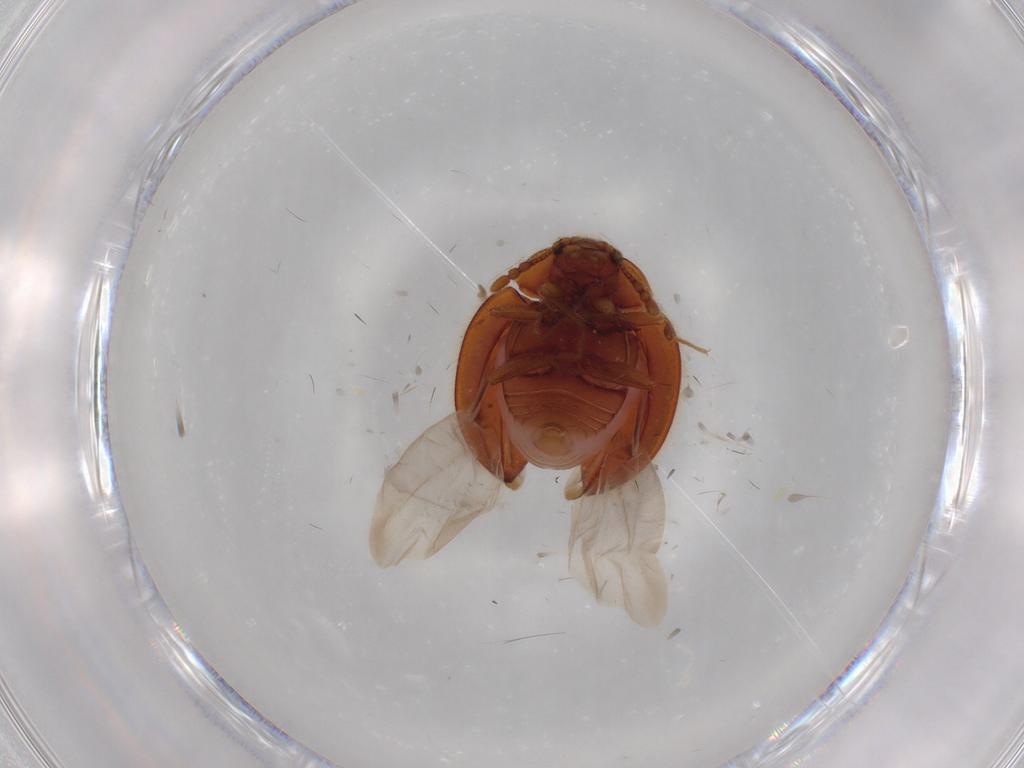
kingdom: Animalia
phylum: Arthropoda
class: Insecta
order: Coleoptera
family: Anamorphidae
